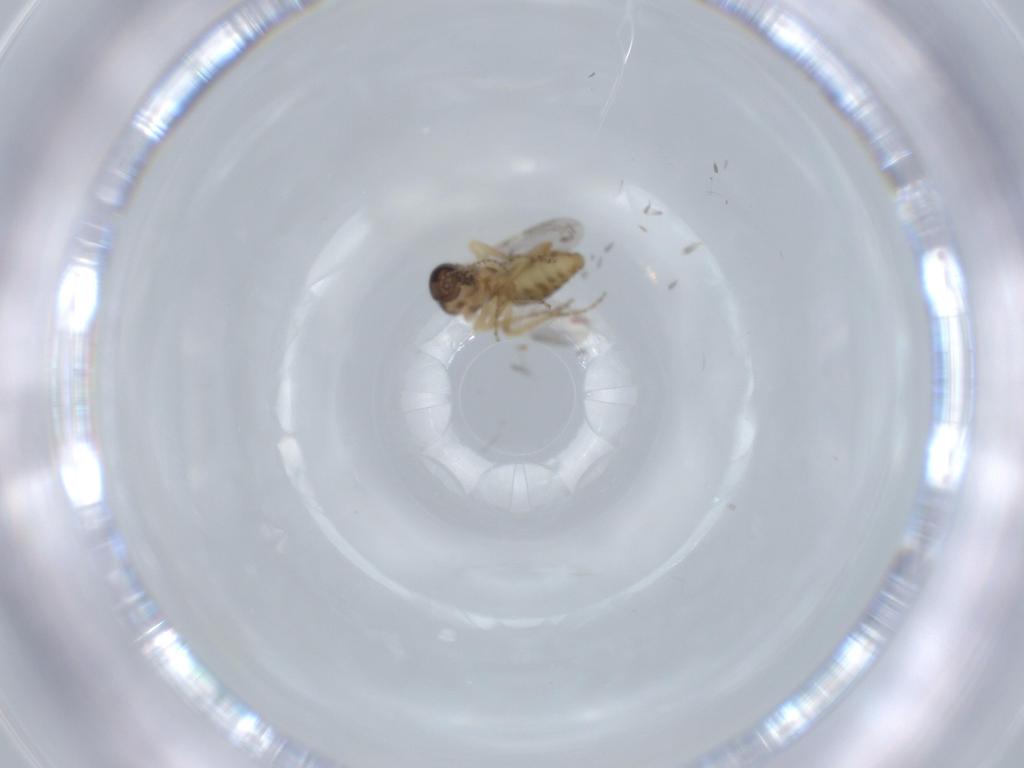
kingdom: Animalia
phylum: Arthropoda
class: Insecta
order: Diptera
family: Ceratopogonidae
